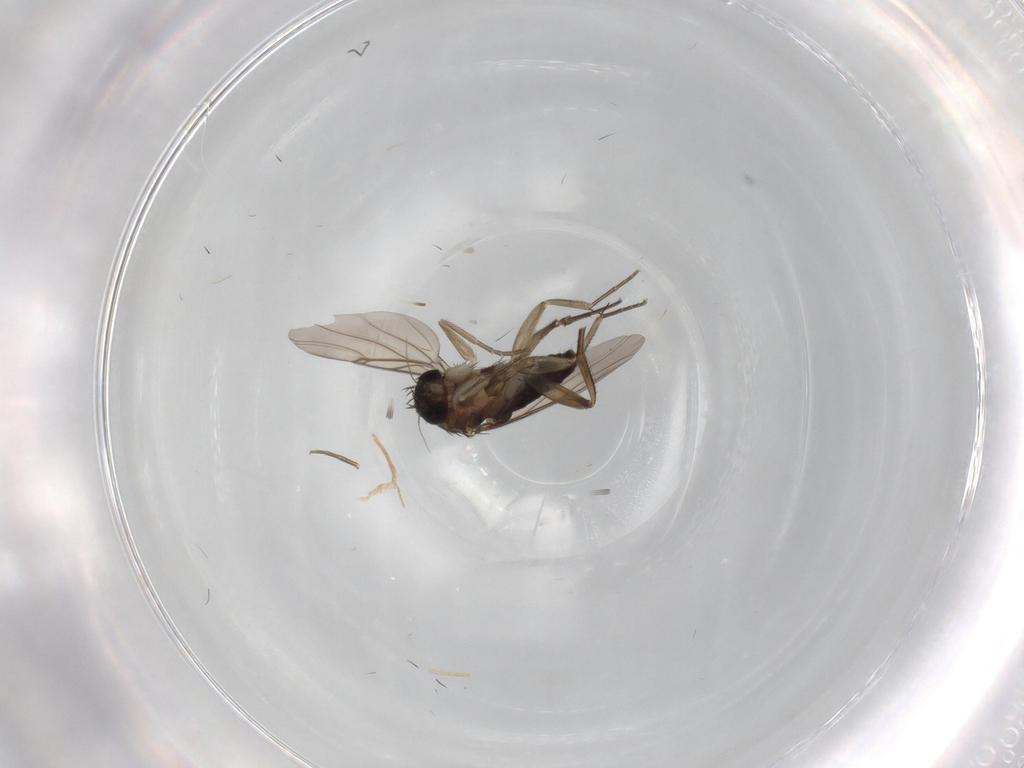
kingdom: Animalia
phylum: Arthropoda
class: Insecta
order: Diptera
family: Phoridae
